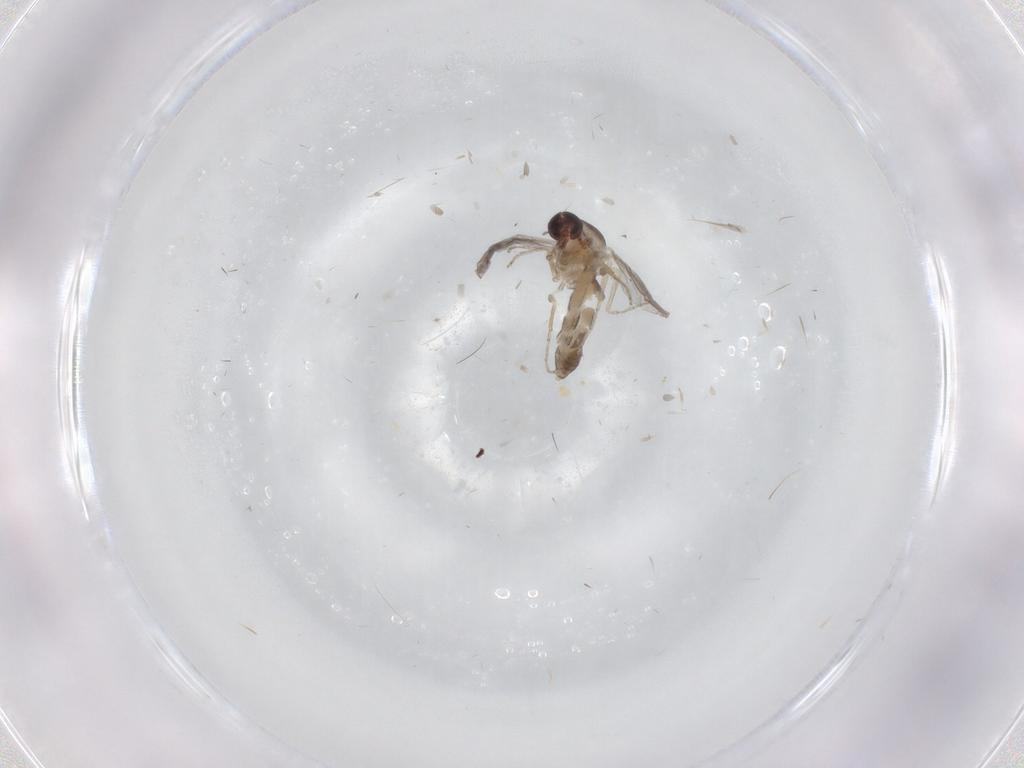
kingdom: Animalia
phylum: Arthropoda
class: Insecta
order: Diptera
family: Ceratopogonidae
